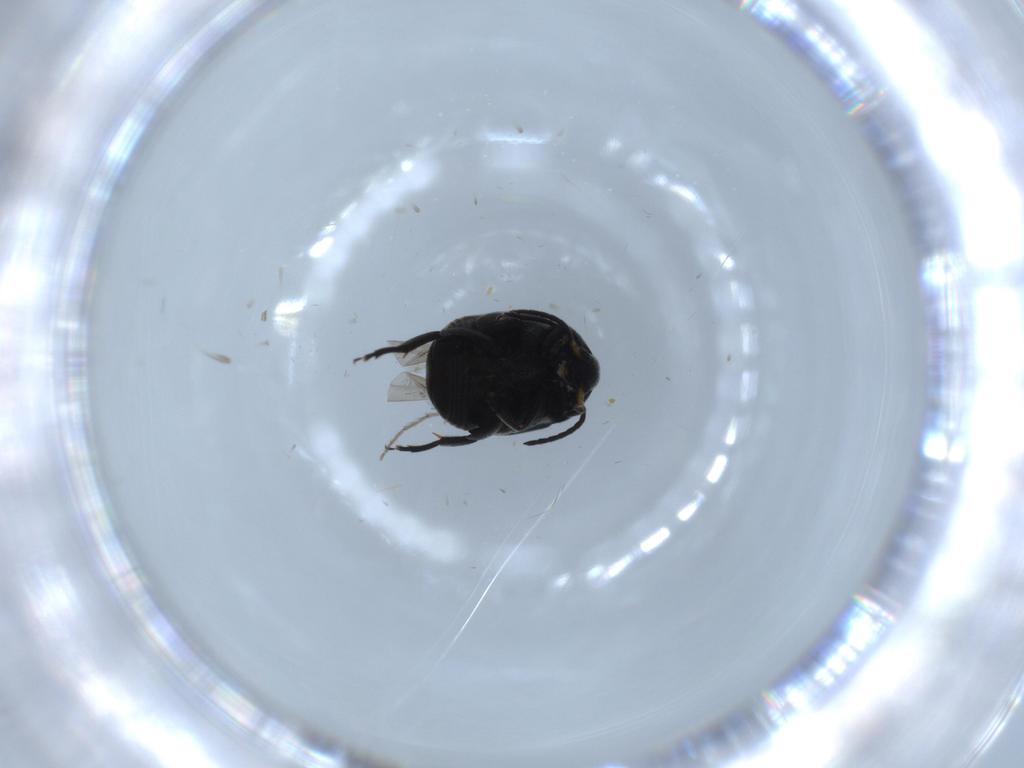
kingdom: Animalia
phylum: Arthropoda
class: Insecta
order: Coleoptera
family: Chrysomelidae
